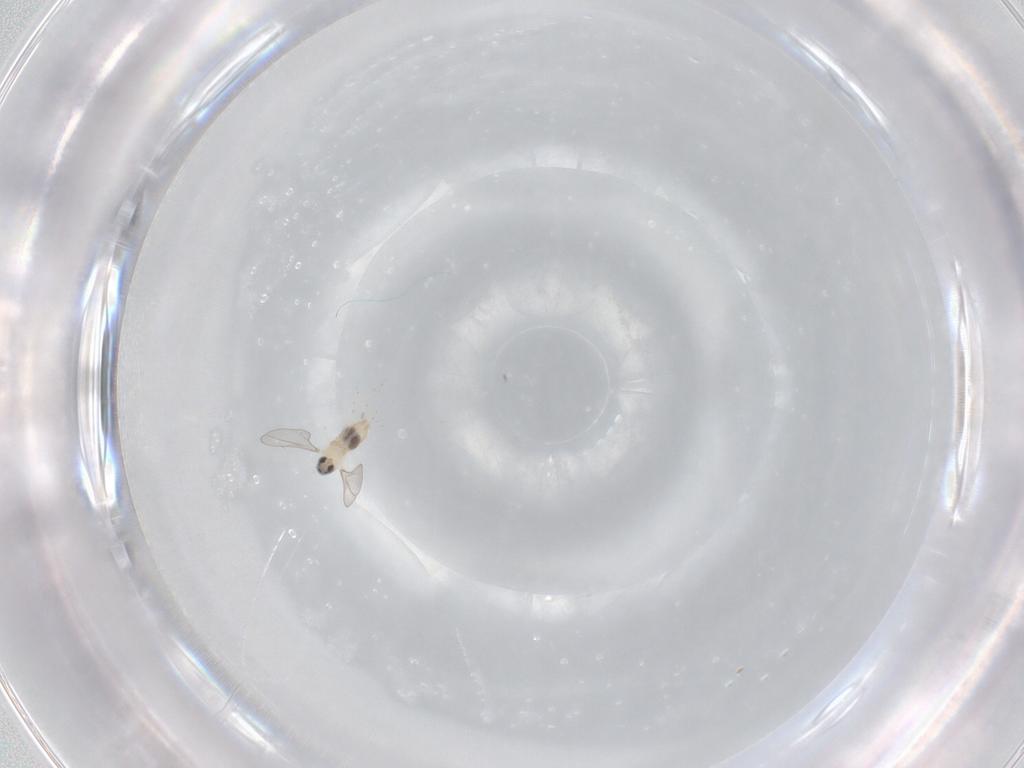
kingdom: Animalia
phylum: Arthropoda
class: Insecta
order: Diptera
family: Cecidomyiidae
